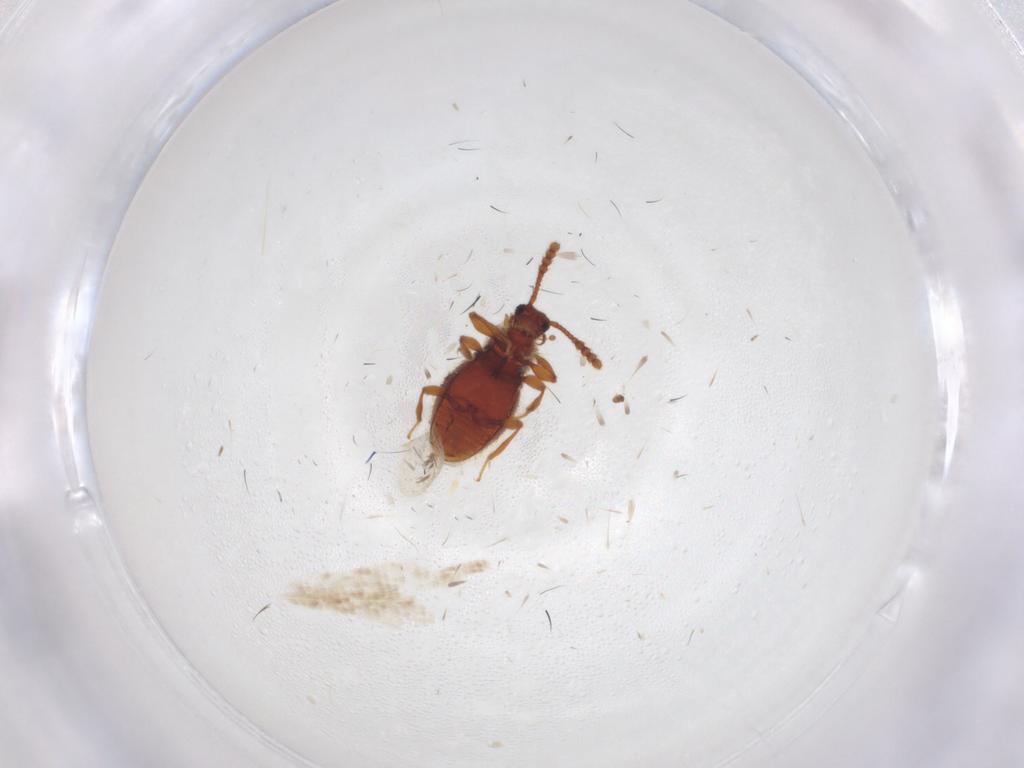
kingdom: Animalia
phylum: Arthropoda
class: Insecta
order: Coleoptera
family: Staphylinidae
